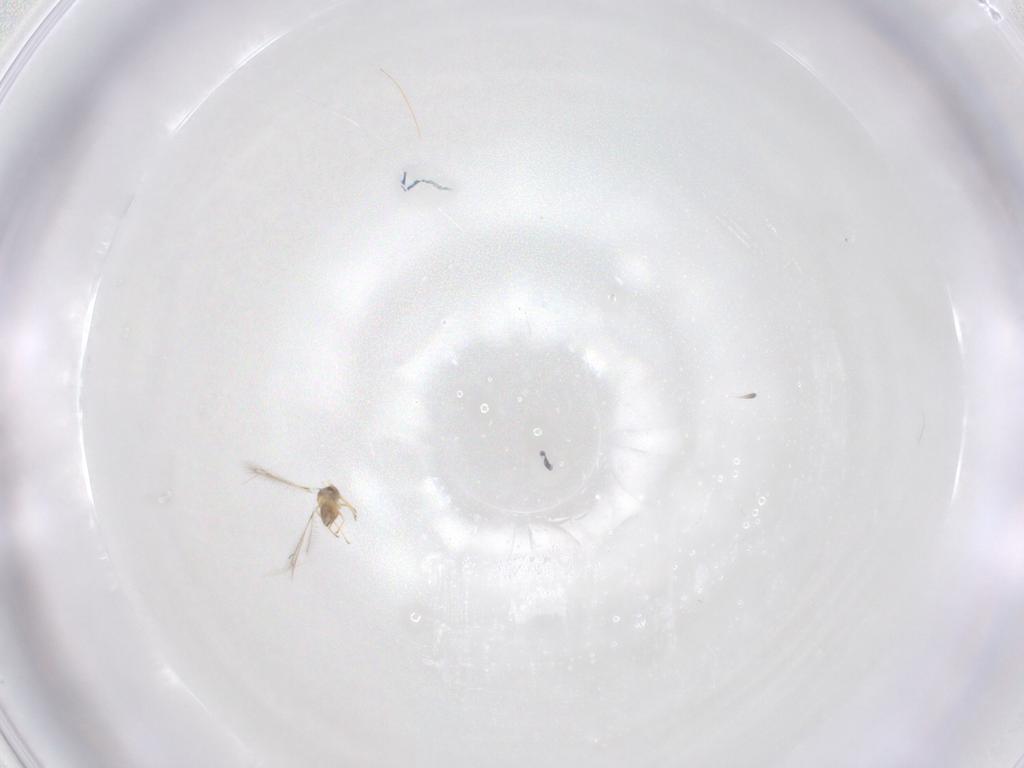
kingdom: Animalia
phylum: Arthropoda
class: Insecta
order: Hymenoptera
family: Mymaridae
